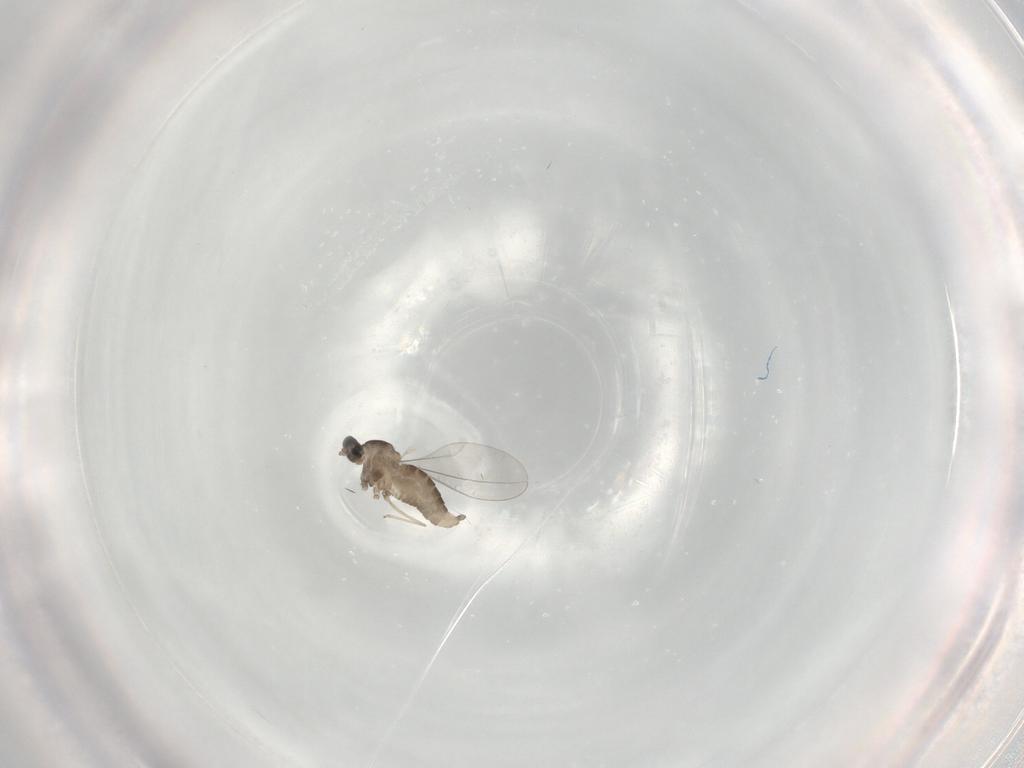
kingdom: Animalia
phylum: Arthropoda
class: Insecta
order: Diptera
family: Cecidomyiidae
